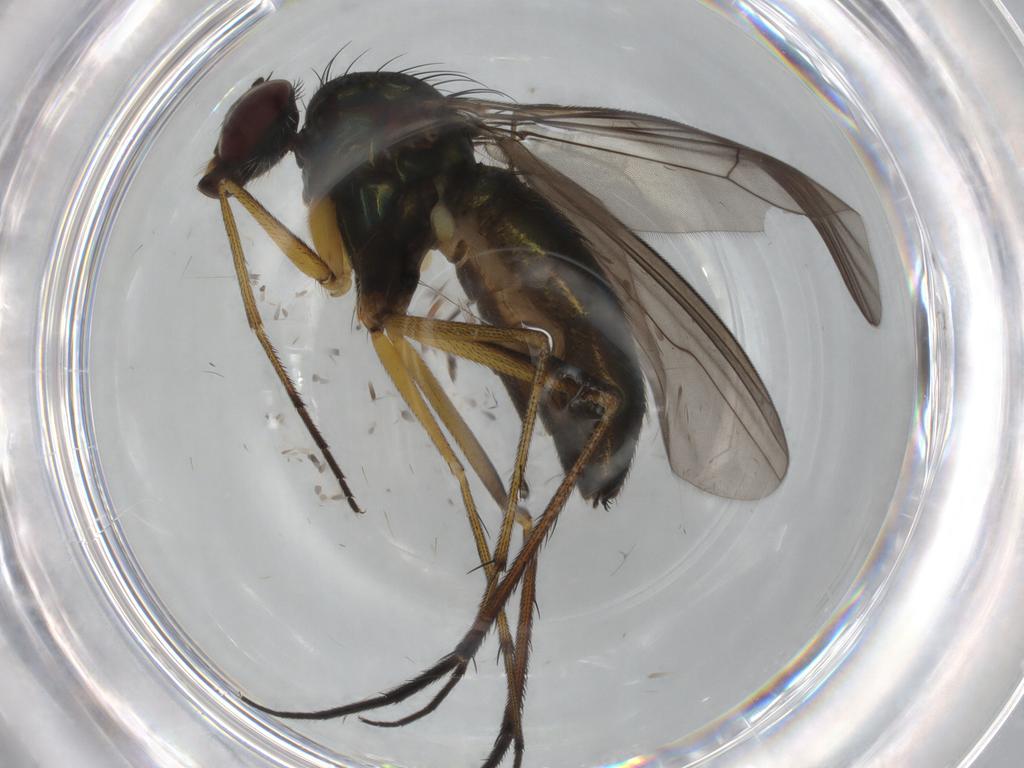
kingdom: Animalia
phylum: Arthropoda
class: Insecta
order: Diptera
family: Dolichopodidae
